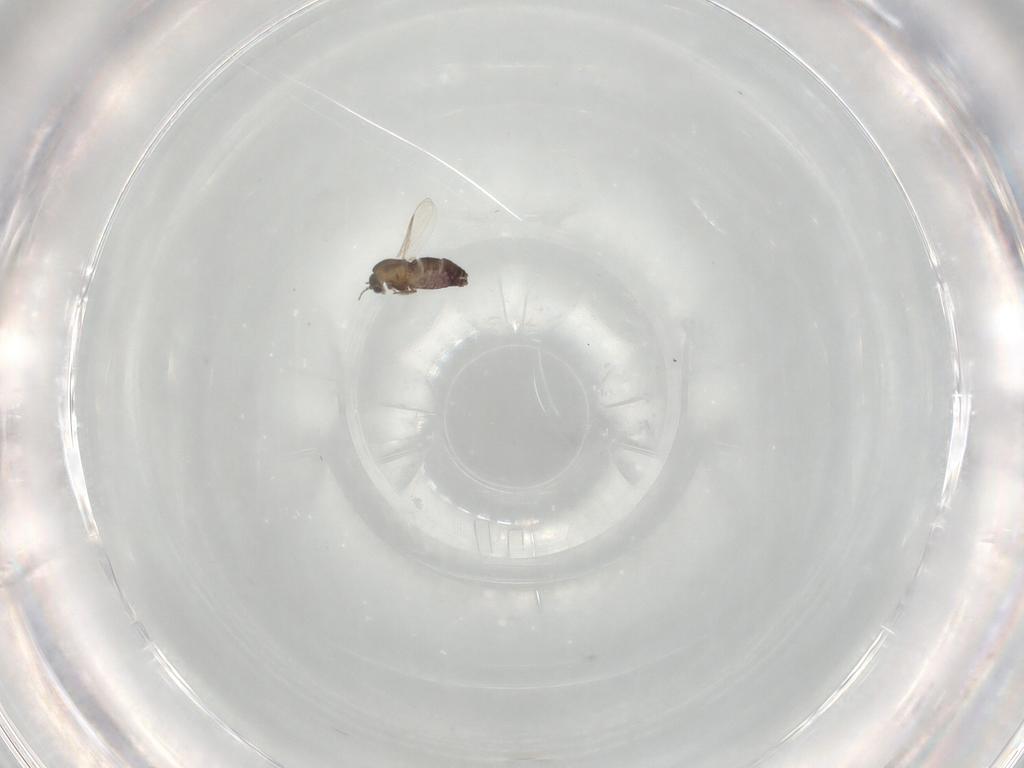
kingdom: Animalia
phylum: Arthropoda
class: Insecta
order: Diptera
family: Chironomidae
